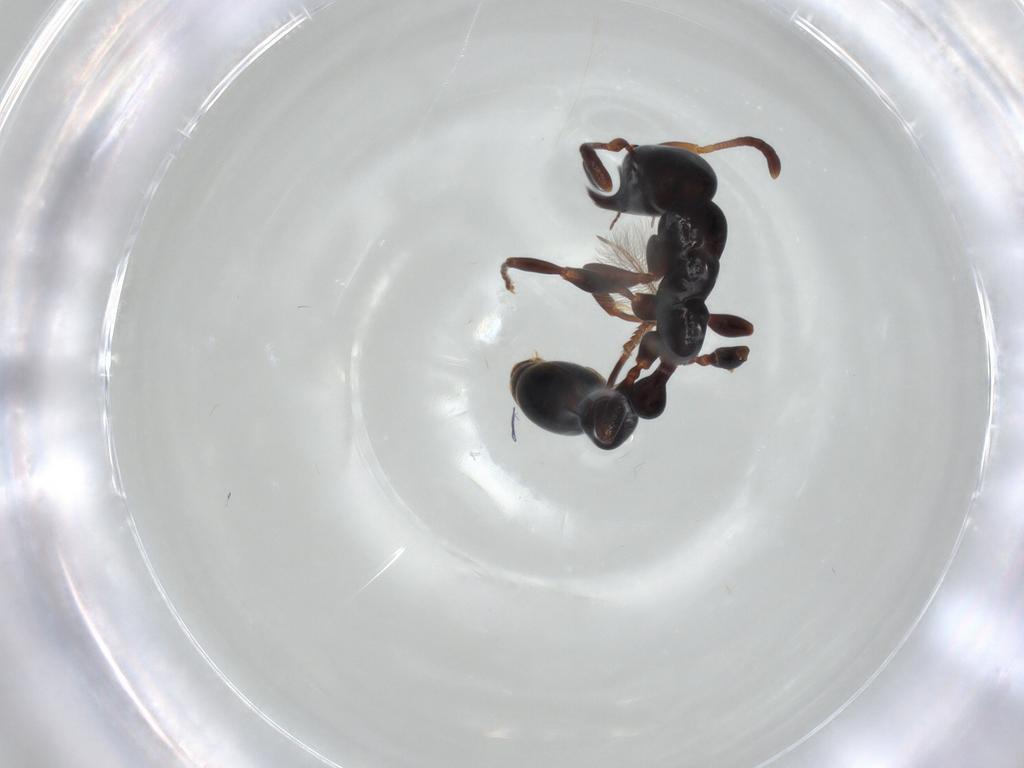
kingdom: Animalia
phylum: Arthropoda
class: Insecta
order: Hymenoptera
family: Formicidae
